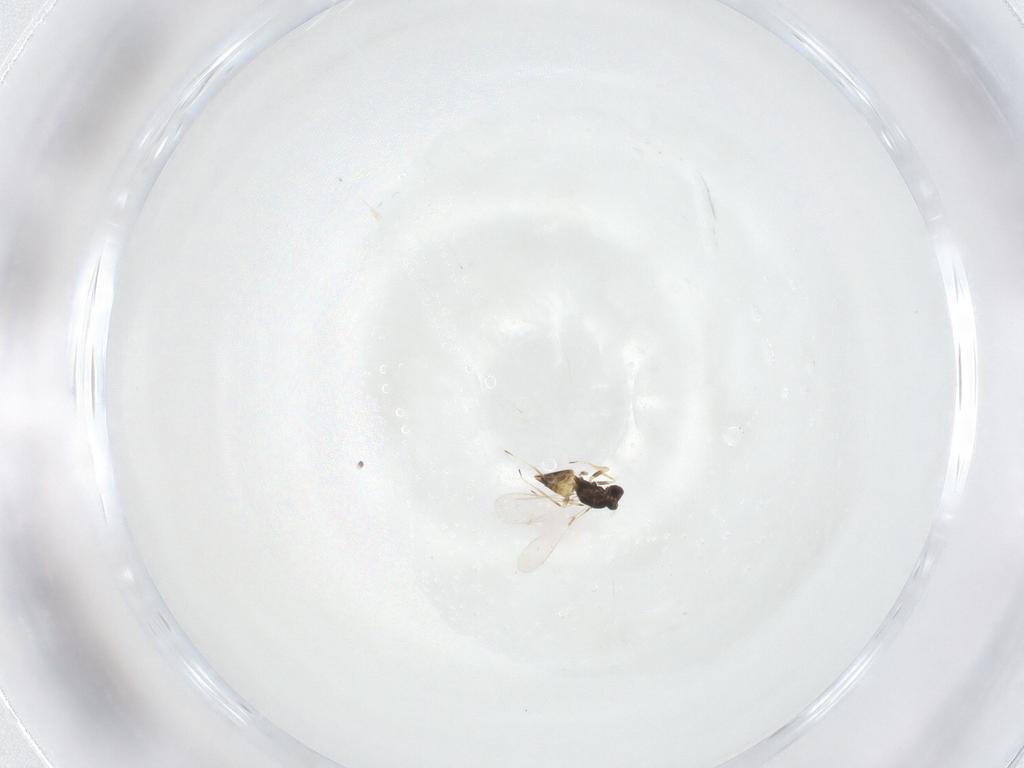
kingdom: Animalia
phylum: Arthropoda
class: Insecta
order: Hymenoptera
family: Mymaridae
